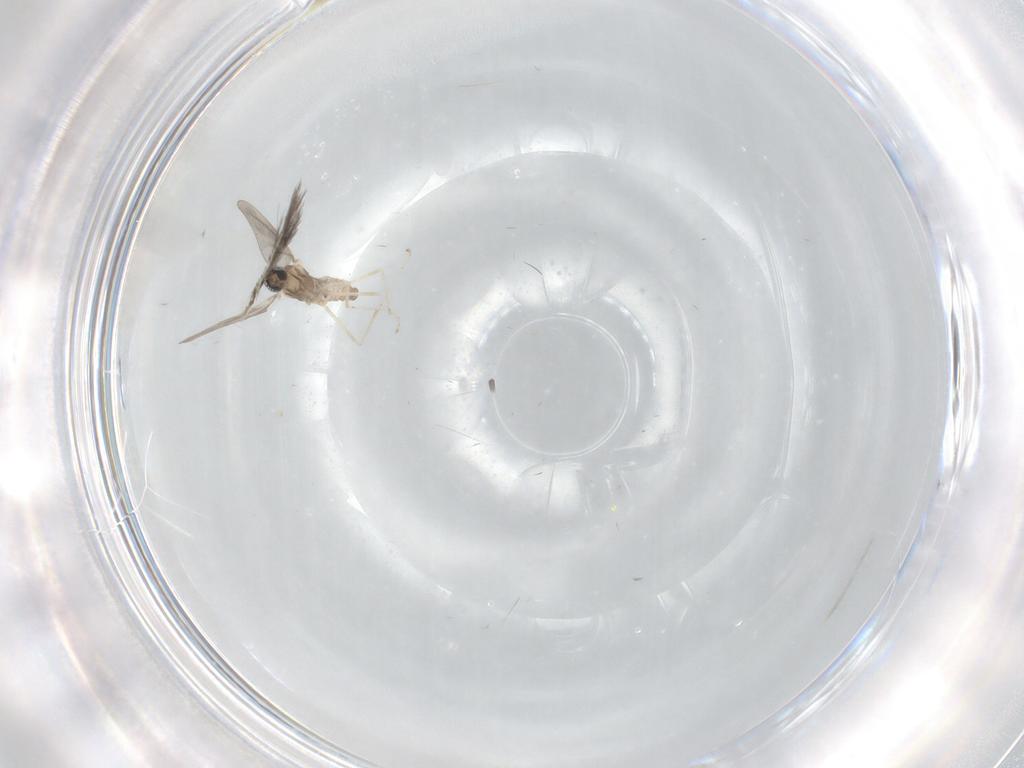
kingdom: Animalia
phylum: Arthropoda
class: Insecta
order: Diptera
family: Cecidomyiidae
